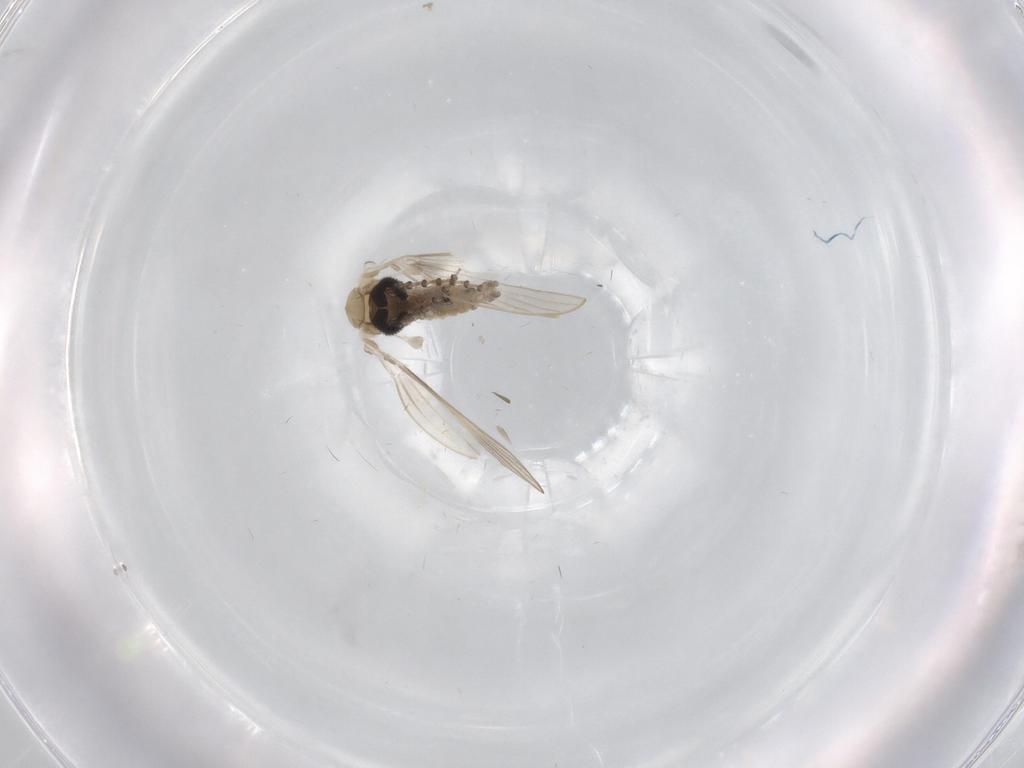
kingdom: Animalia
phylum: Arthropoda
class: Insecta
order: Diptera
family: Limoniidae
